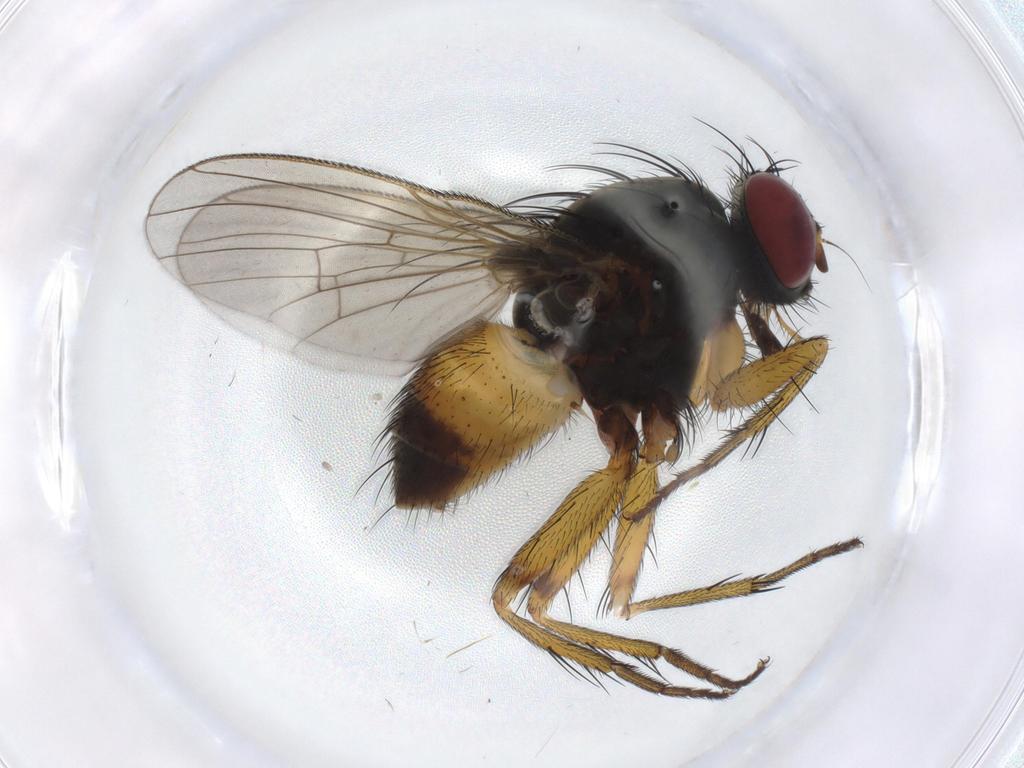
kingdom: Animalia
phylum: Arthropoda
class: Insecta
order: Diptera
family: Muscidae
